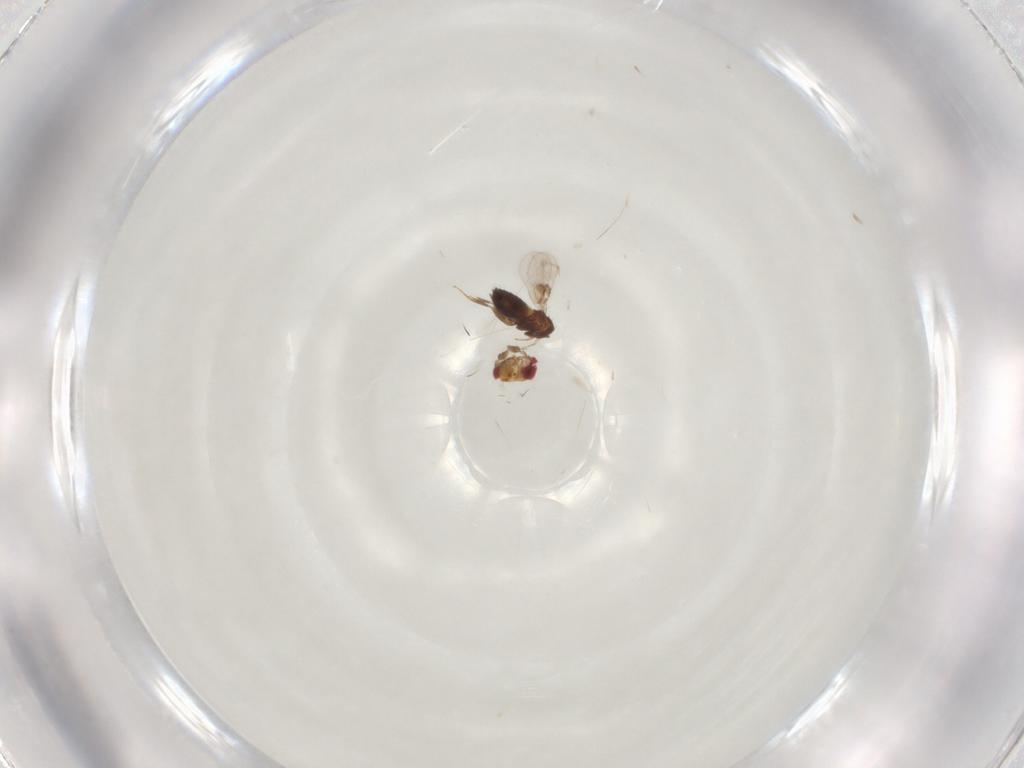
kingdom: Animalia
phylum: Arthropoda
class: Insecta
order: Hymenoptera
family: Trichogrammatidae
